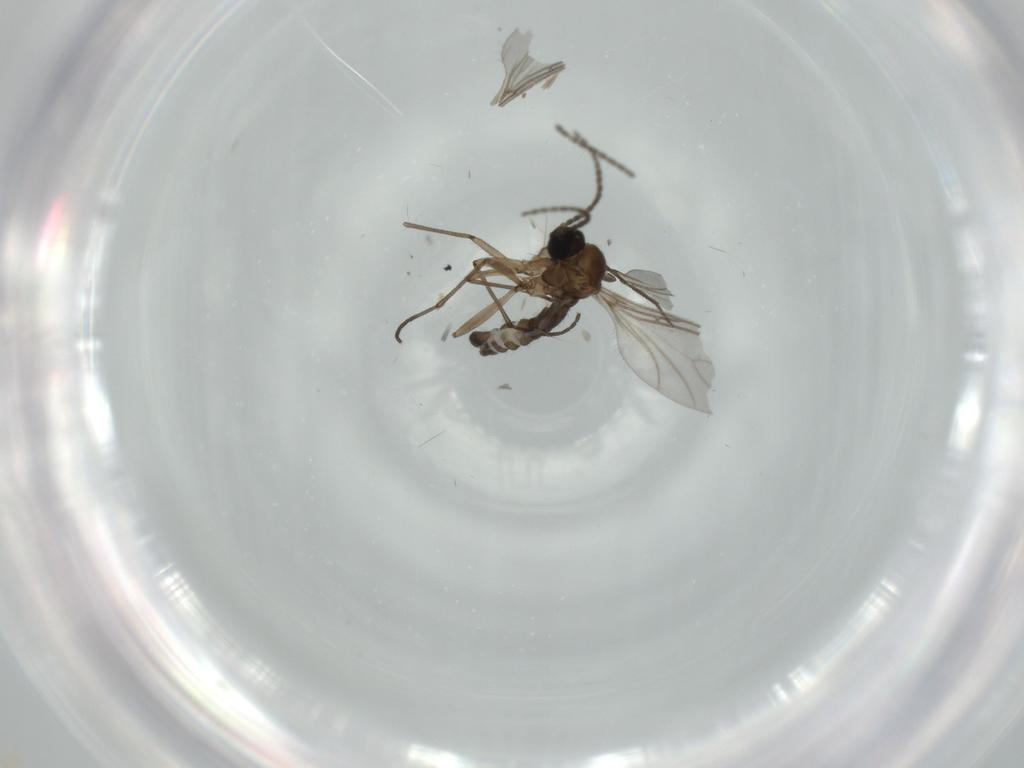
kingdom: Animalia
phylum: Arthropoda
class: Insecta
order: Diptera
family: Sciaridae
